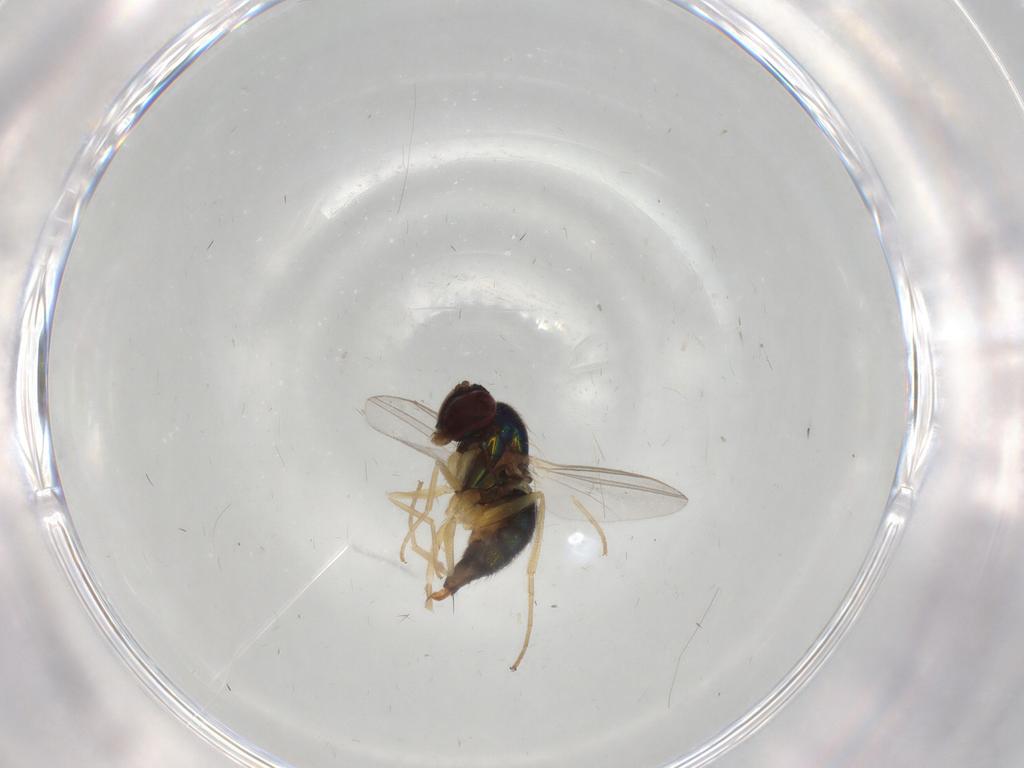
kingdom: Animalia
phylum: Arthropoda
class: Insecta
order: Diptera
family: Dolichopodidae
